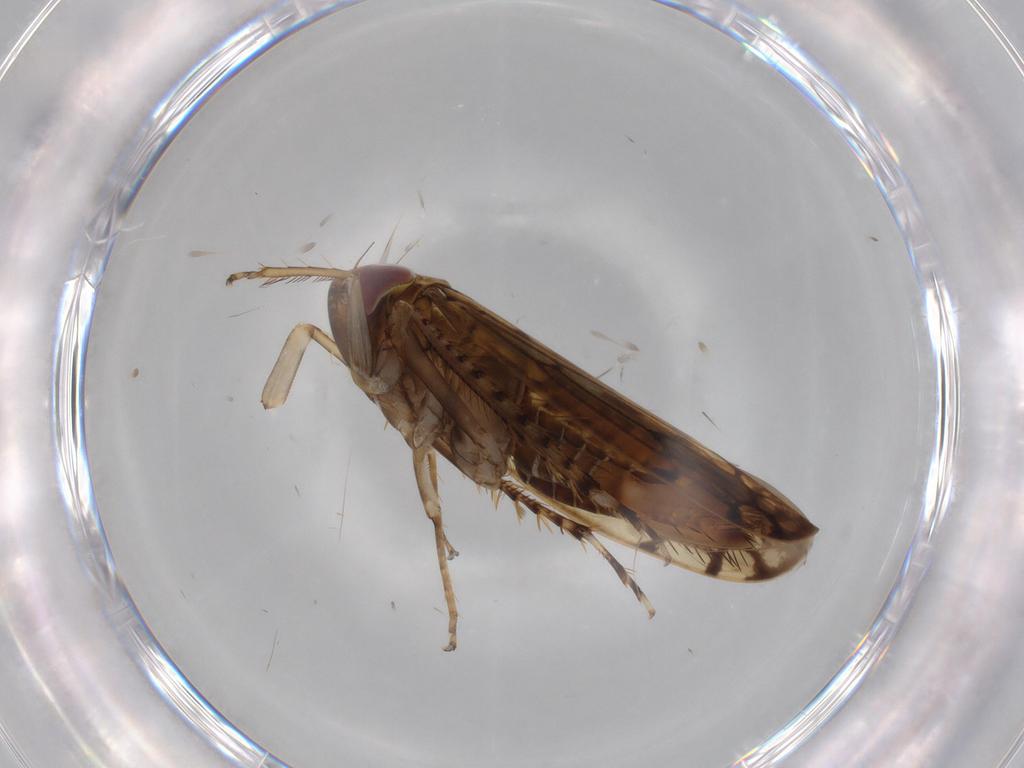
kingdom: Animalia
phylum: Arthropoda
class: Insecta
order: Hemiptera
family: Cicadellidae
